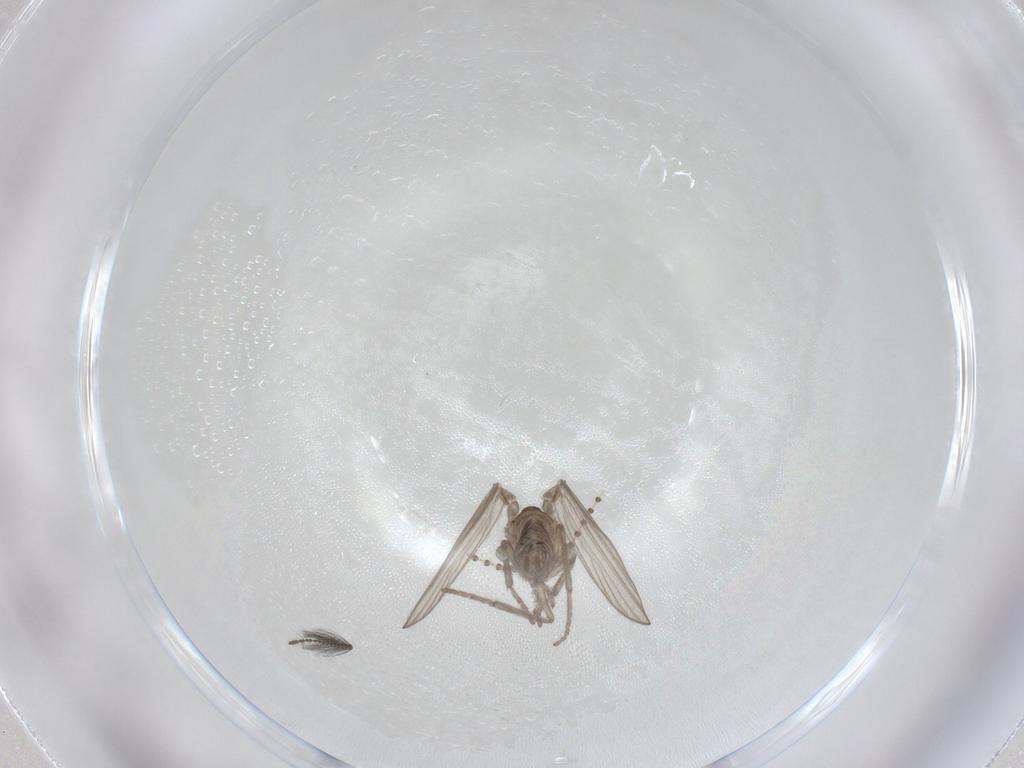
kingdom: Animalia
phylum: Arthropoda
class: Insecta
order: Diptera
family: Psychodidae
